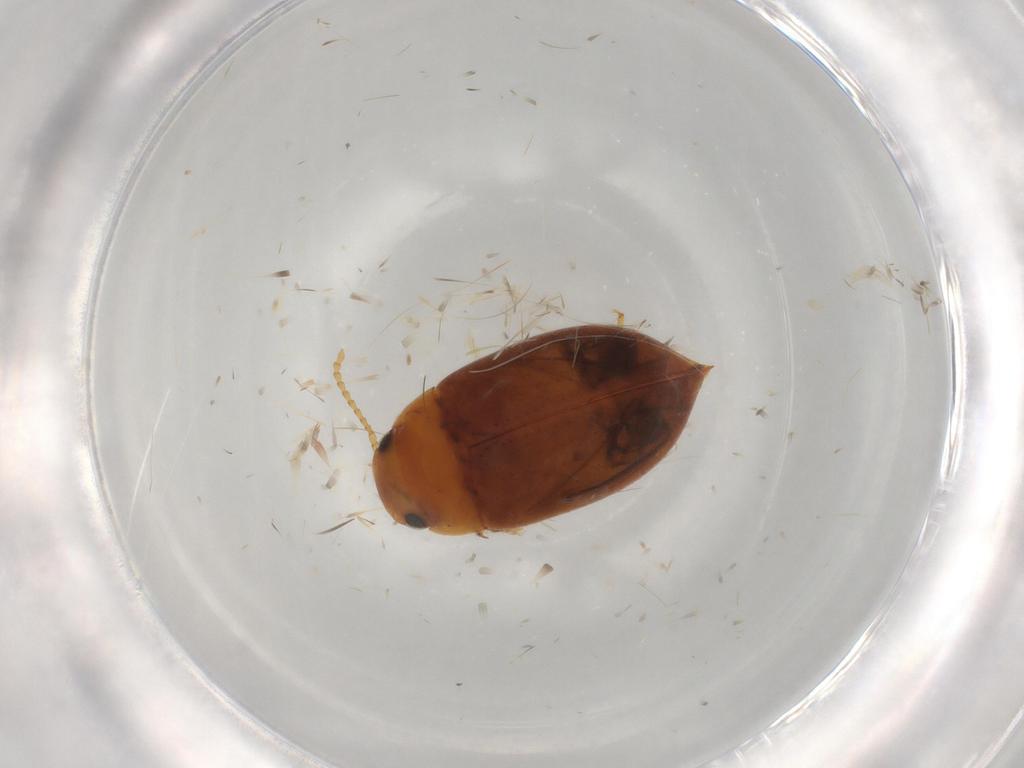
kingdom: Animalia
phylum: Arthropoda
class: Insecta
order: Coleoptera
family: Dytiscidae
